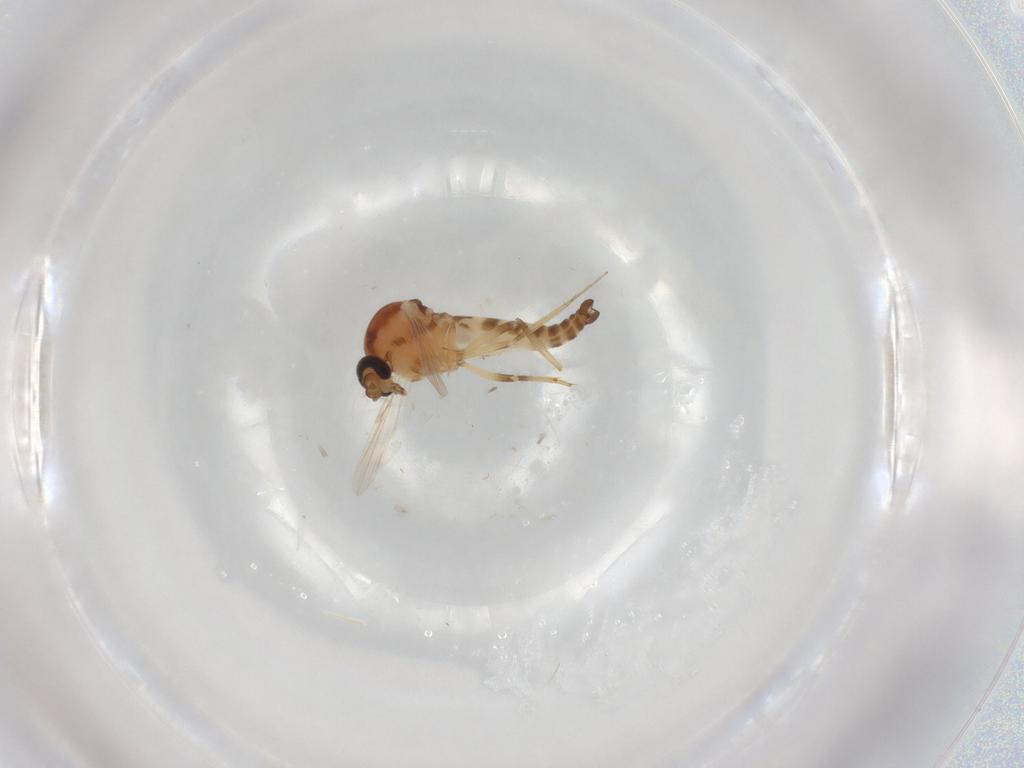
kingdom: Animalia
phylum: Arthropoda
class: Insecta
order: Diptera
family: Ceratopogonidae
